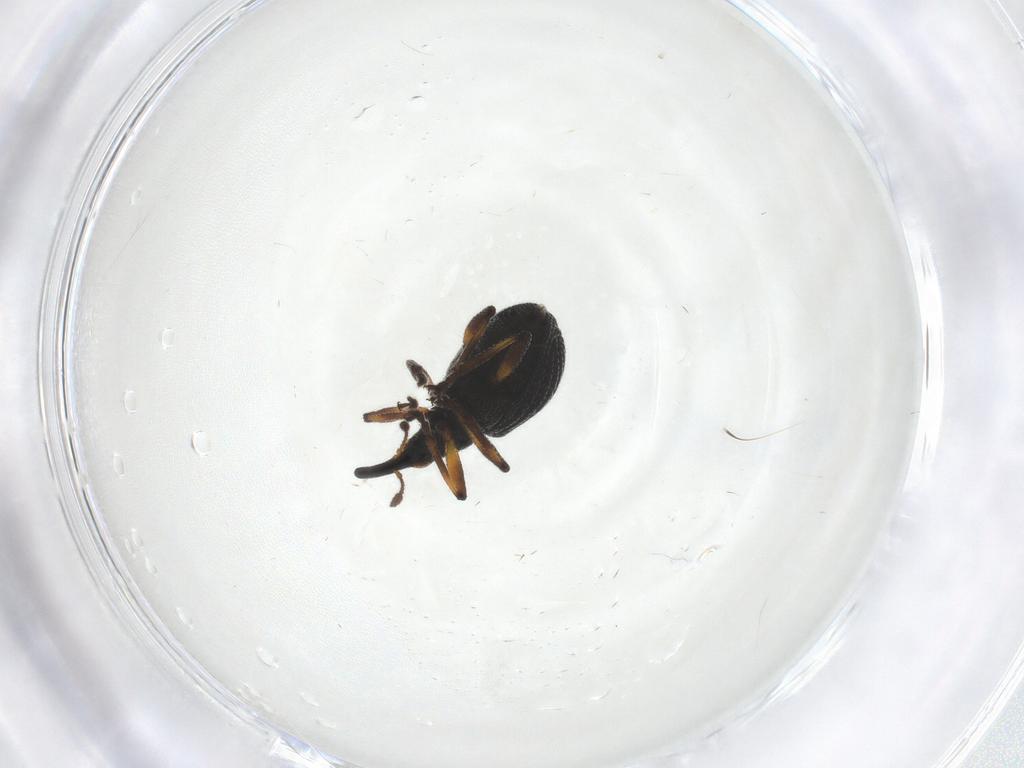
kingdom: Animalia
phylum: Arthropoda
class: Insecta
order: Coleoptera
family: Brentidae
